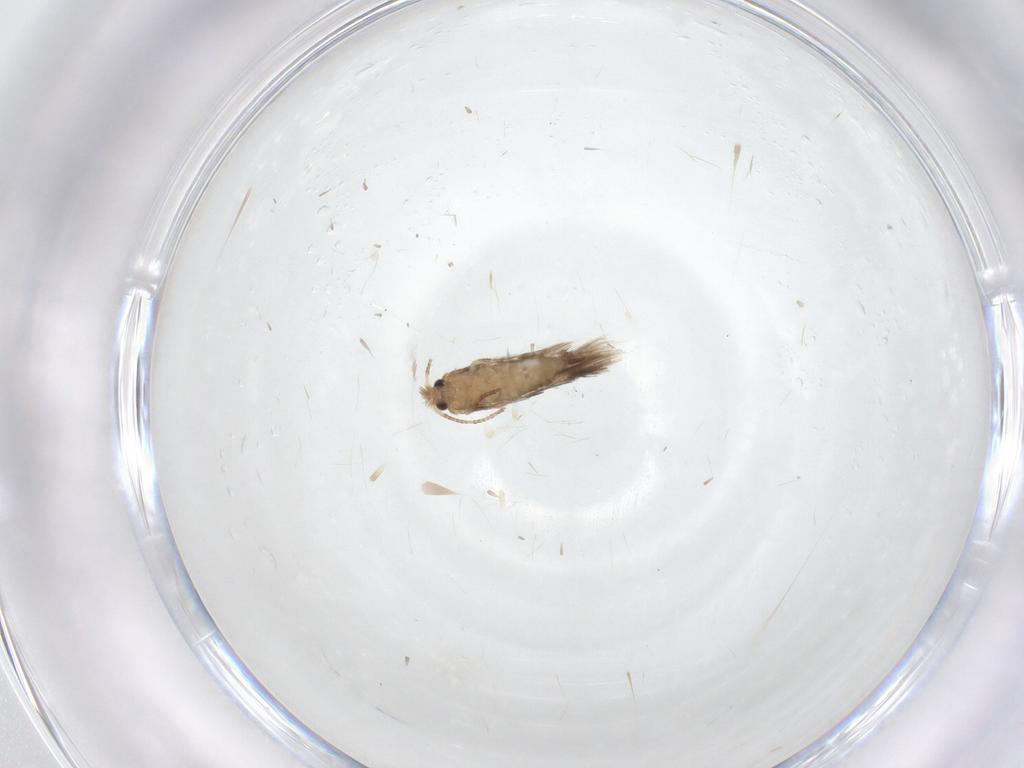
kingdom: Animalia
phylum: Arthropoda
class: Insecta
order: Lepidoptera
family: Nepticulidae
